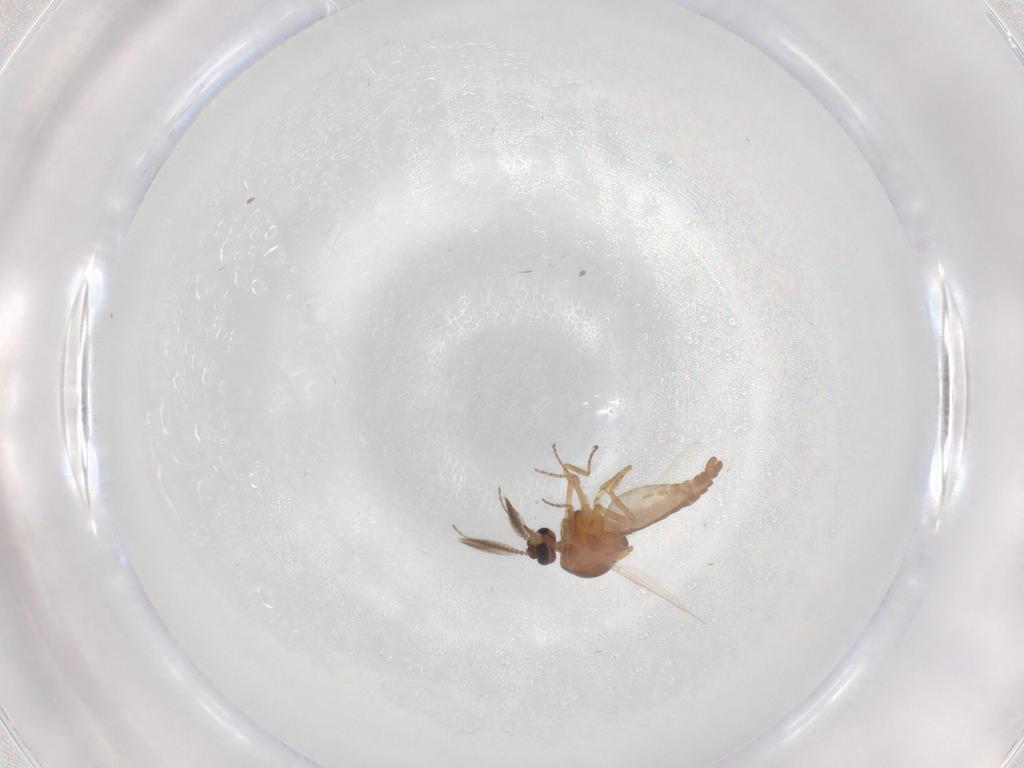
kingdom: Animalia
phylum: Arthropoda
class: Insecta
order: Diptera
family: Ceratopogonidae
